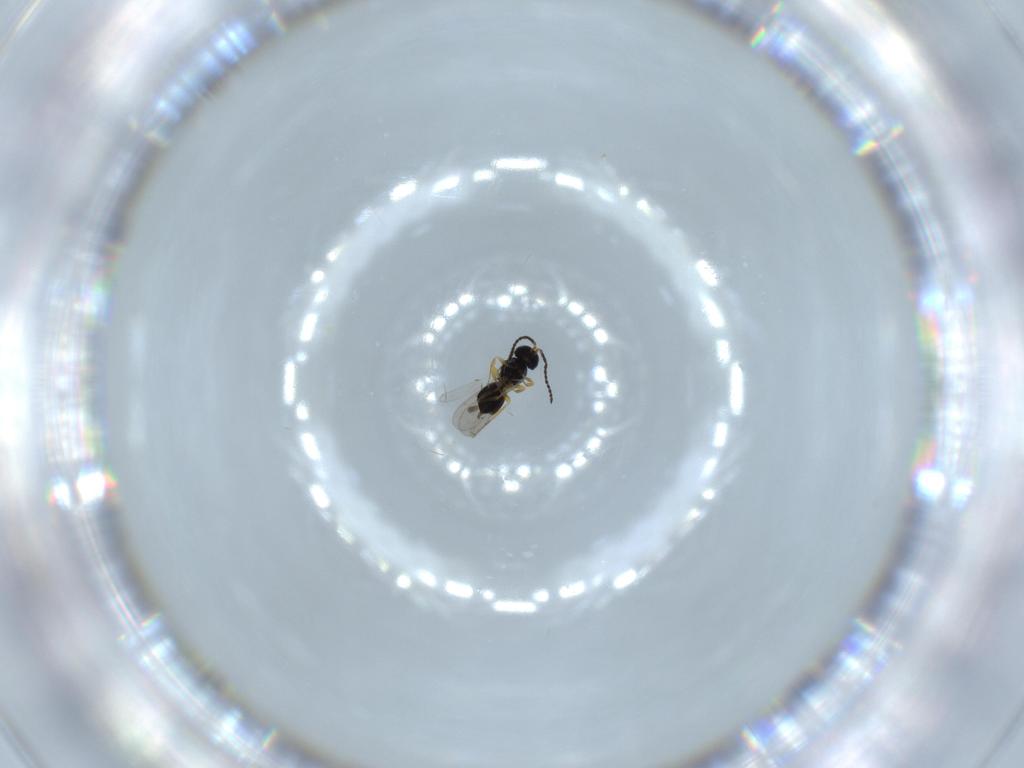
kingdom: Animalia
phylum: Arthropoda
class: Insecta
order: Hymenoptera
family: Scelionidae
